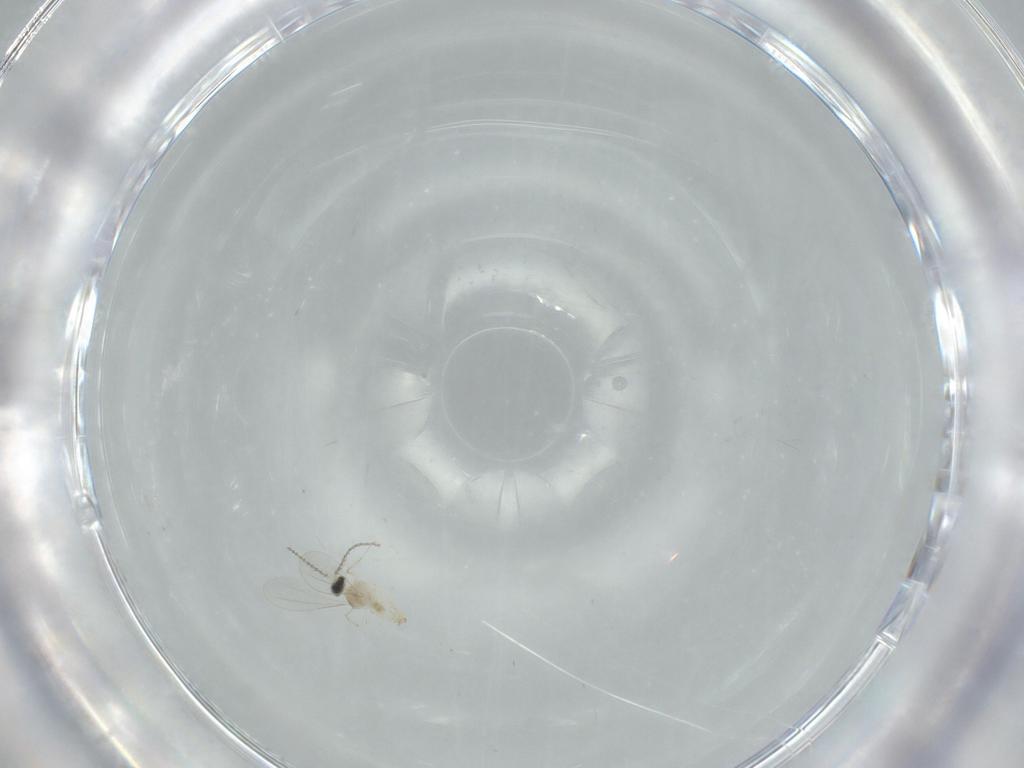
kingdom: Animalia
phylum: Arthropoda
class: Insecta
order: Diptera
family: Cecidomyiidae
